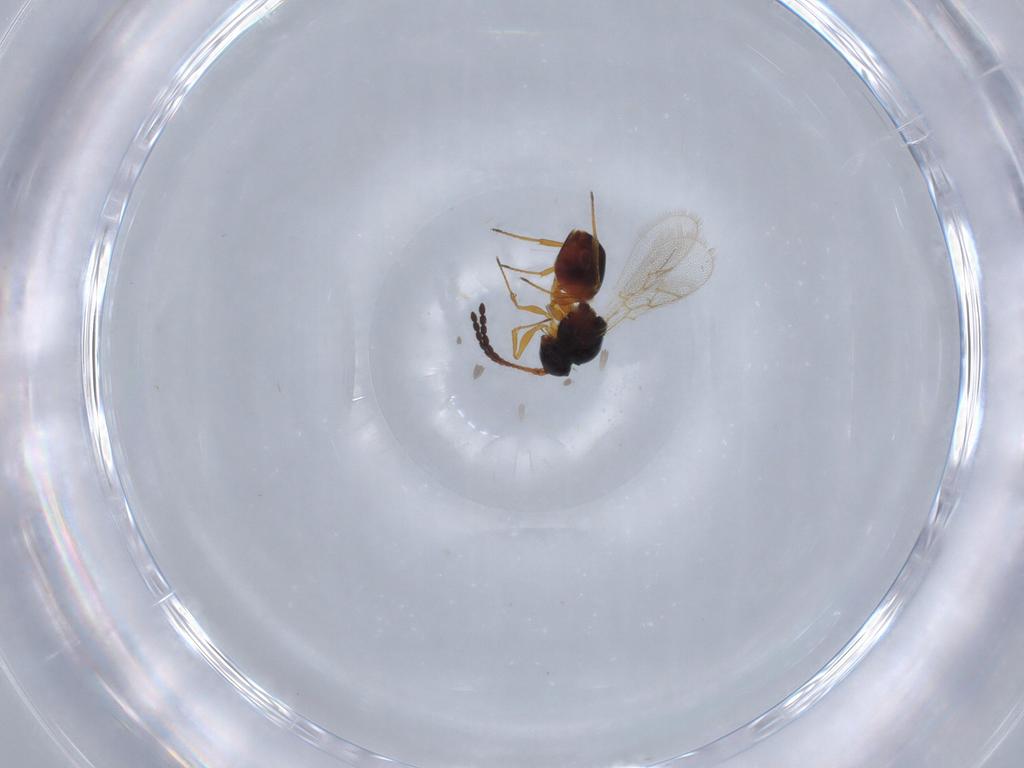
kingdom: Animalia
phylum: Arthropoda
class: Insecta
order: Hymenoptera
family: Figitidae
